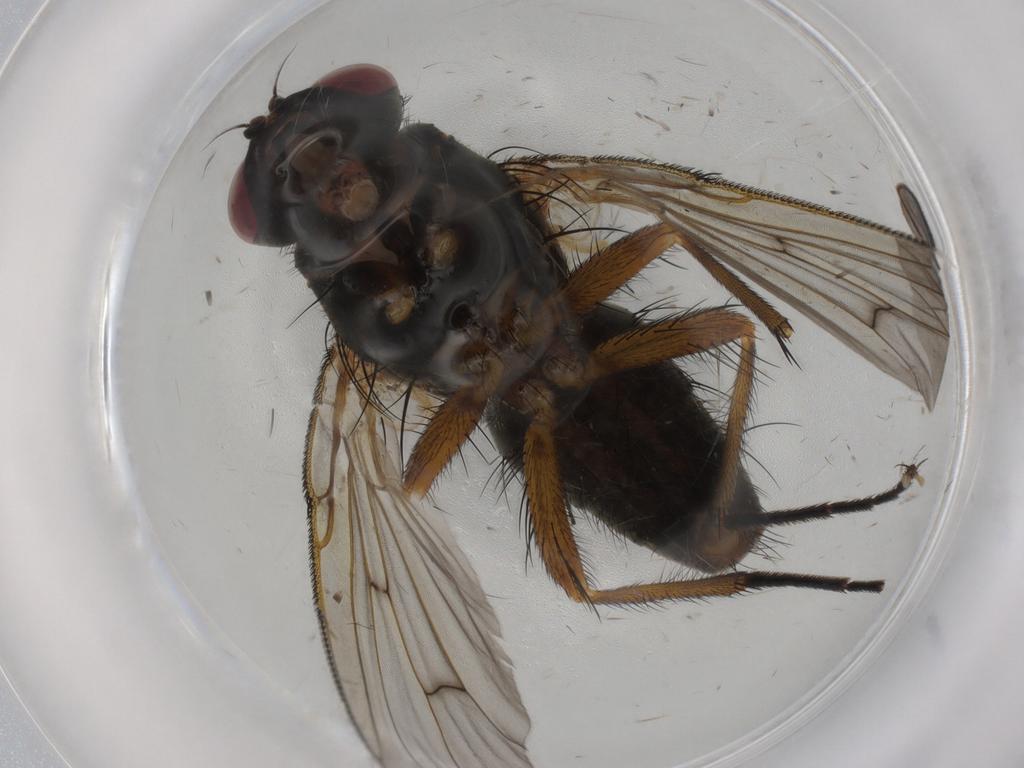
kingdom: Animalia
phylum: Arthropoda
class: Insecta
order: Diptera
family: Muscidae
